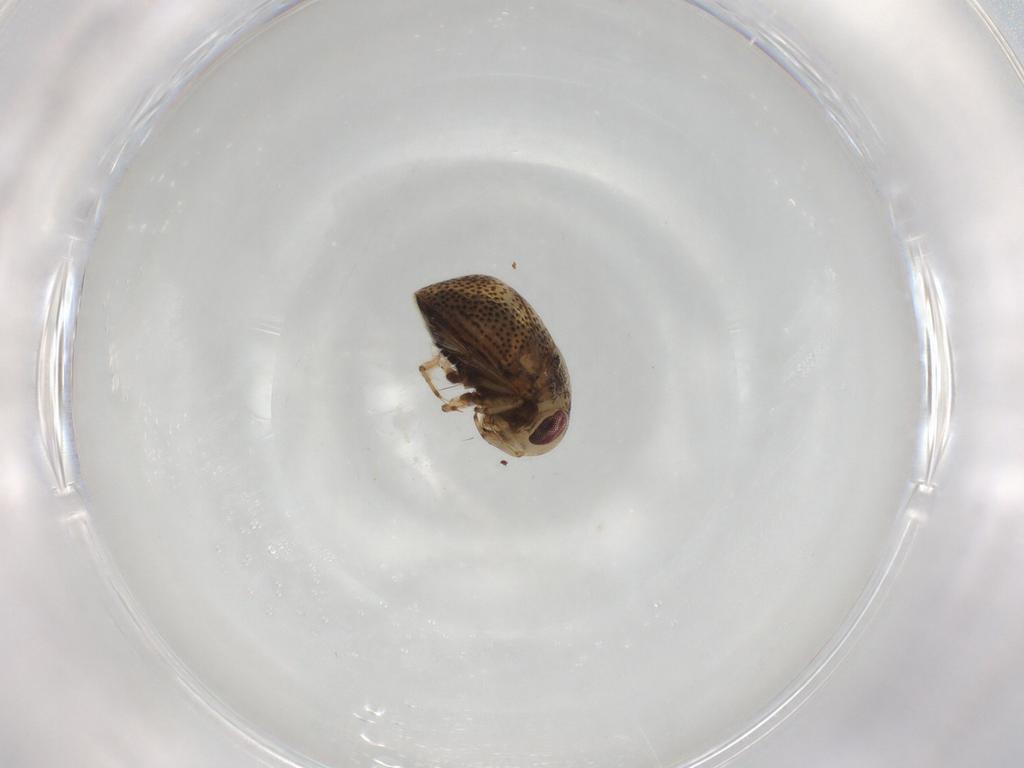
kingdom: Animalia
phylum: Arthropoda
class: Insecta
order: Hemiptera
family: Pleidae
